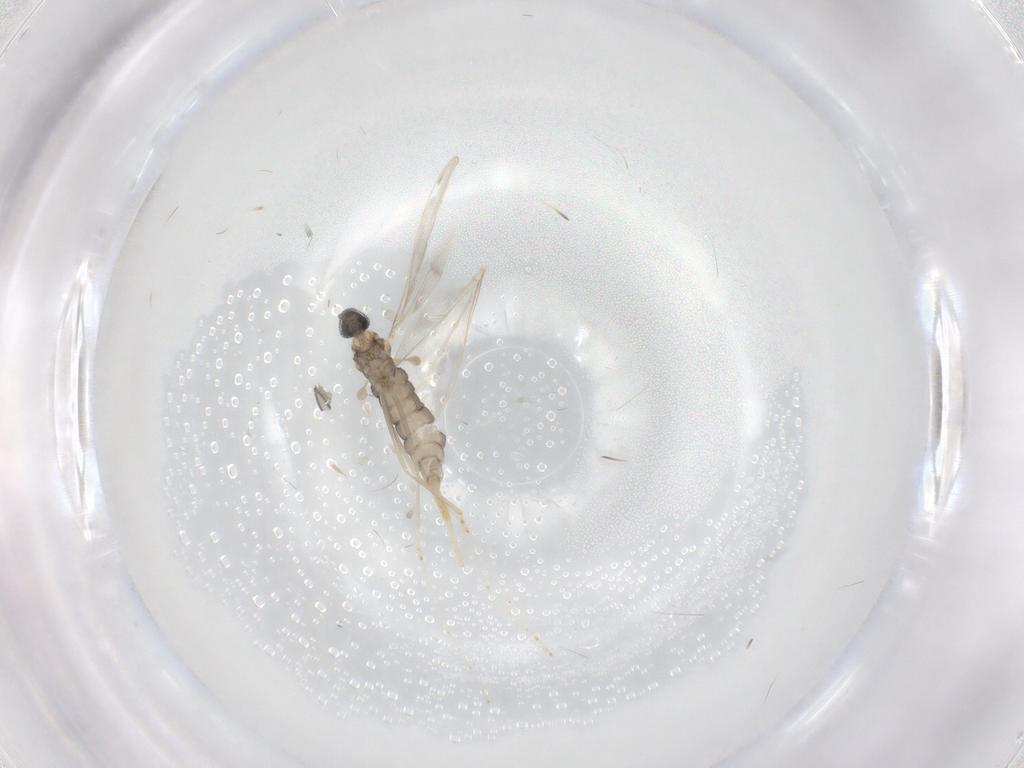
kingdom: Animalia
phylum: Arthropoda
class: Insecta
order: Diptera
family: Cecidomyiidae
